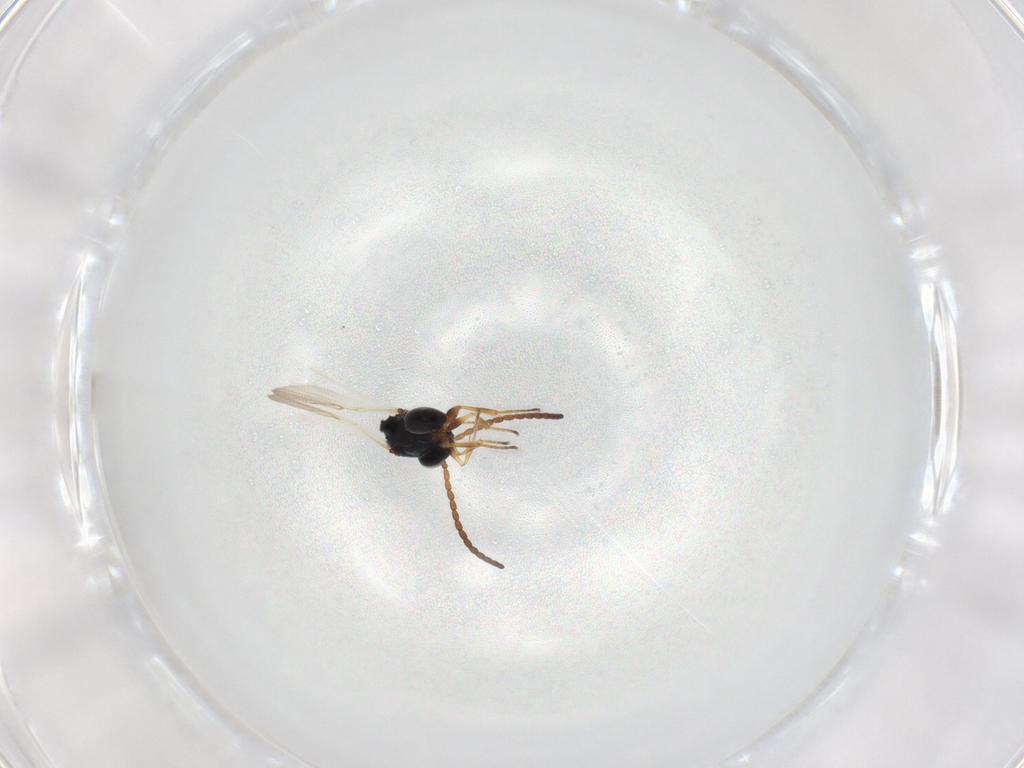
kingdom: Animalia
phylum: Arthropoda
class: Insecta
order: Hymenoptera
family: Figitidae
